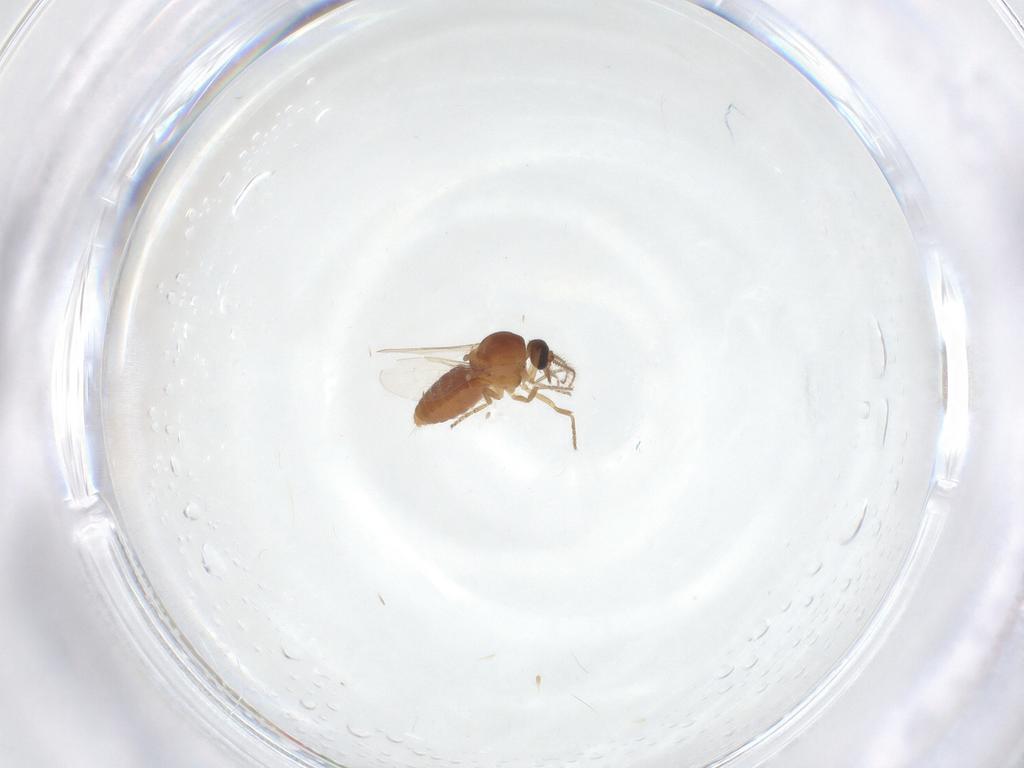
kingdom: Animalia
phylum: Arthropoda
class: Insecta
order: Diptera
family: Ceratopogonidae
